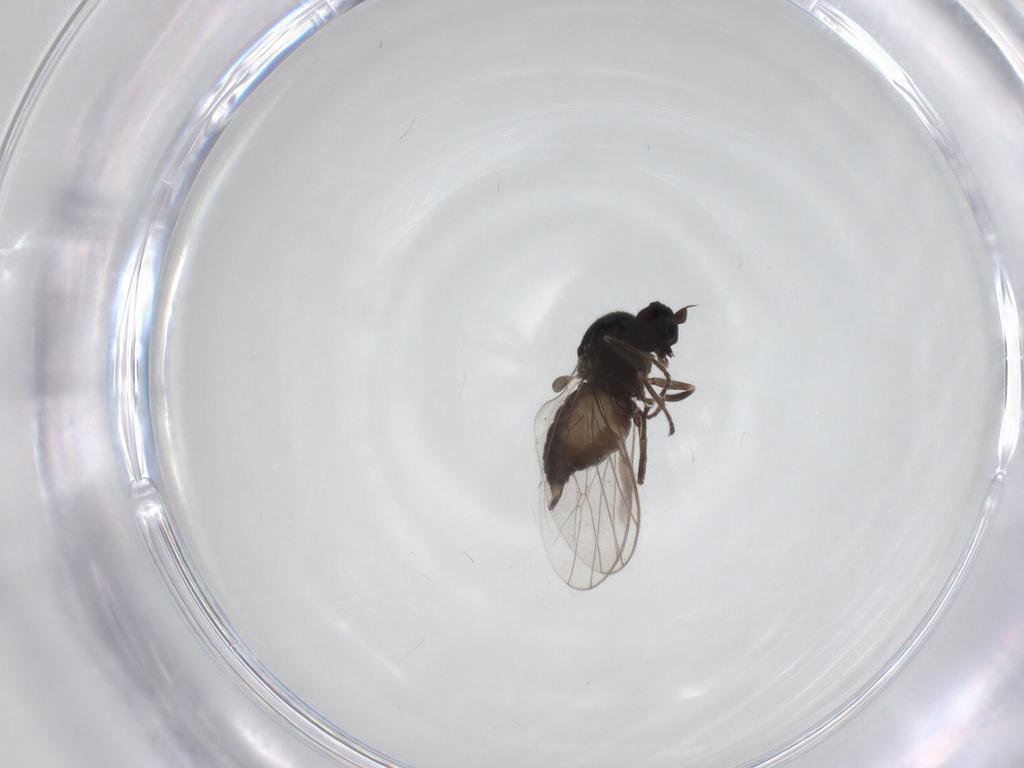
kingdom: Animalia
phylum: Arthropoda
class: Insecta
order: Diptera
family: Hybotidae
